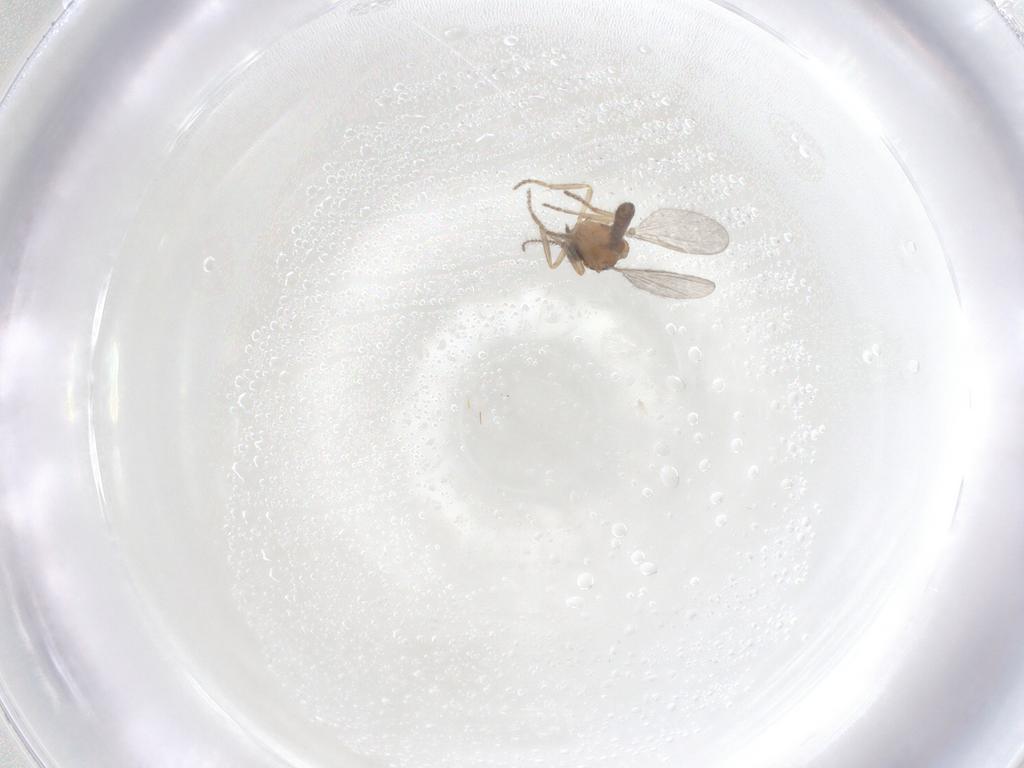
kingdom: Animalia
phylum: Arthropoda
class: Insecta
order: Diptera
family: Ceratopogonidae
